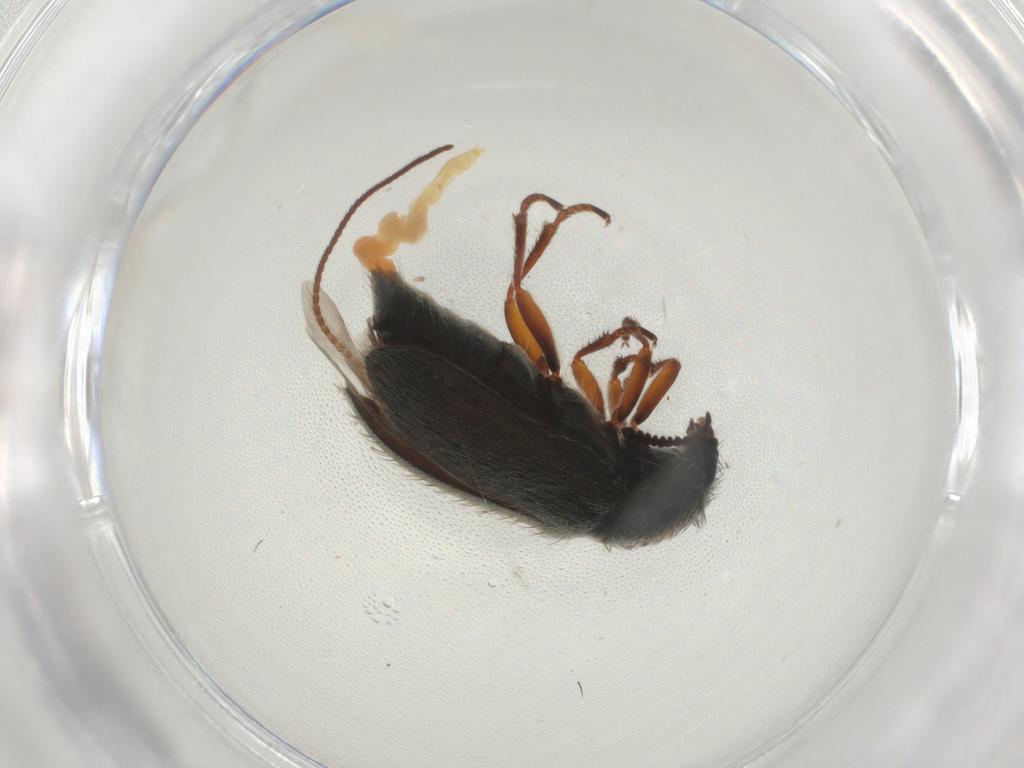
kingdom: Animalia
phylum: Arthropoda
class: Insecta
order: Coleoptera
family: Melyridae
